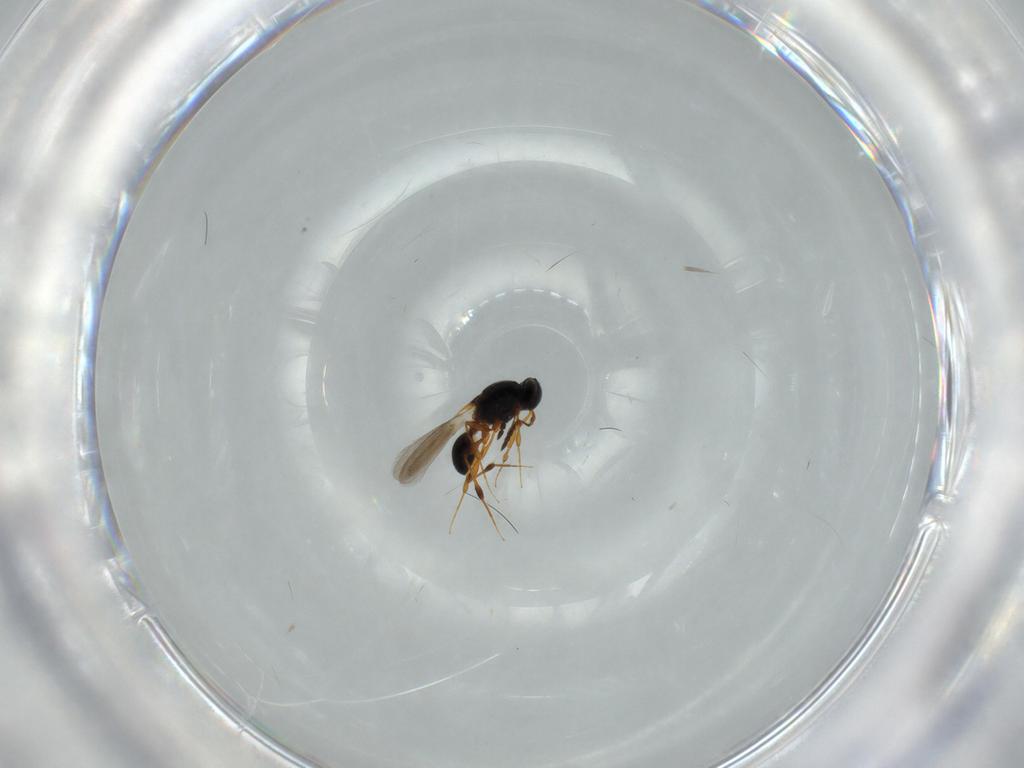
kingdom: Animalia
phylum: Arthropoda
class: Insecta
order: Hymenoptera
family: Platygastridae
